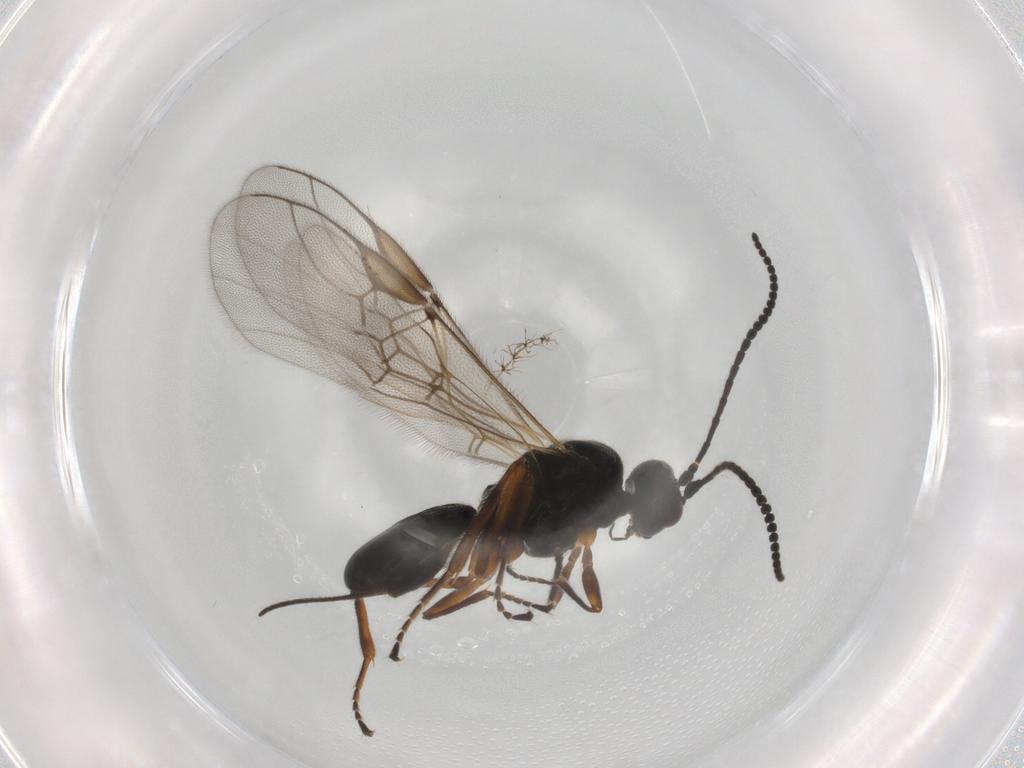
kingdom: Animalia
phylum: Arthropoda
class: Insecta
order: Hymenoptera
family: Braconidae
